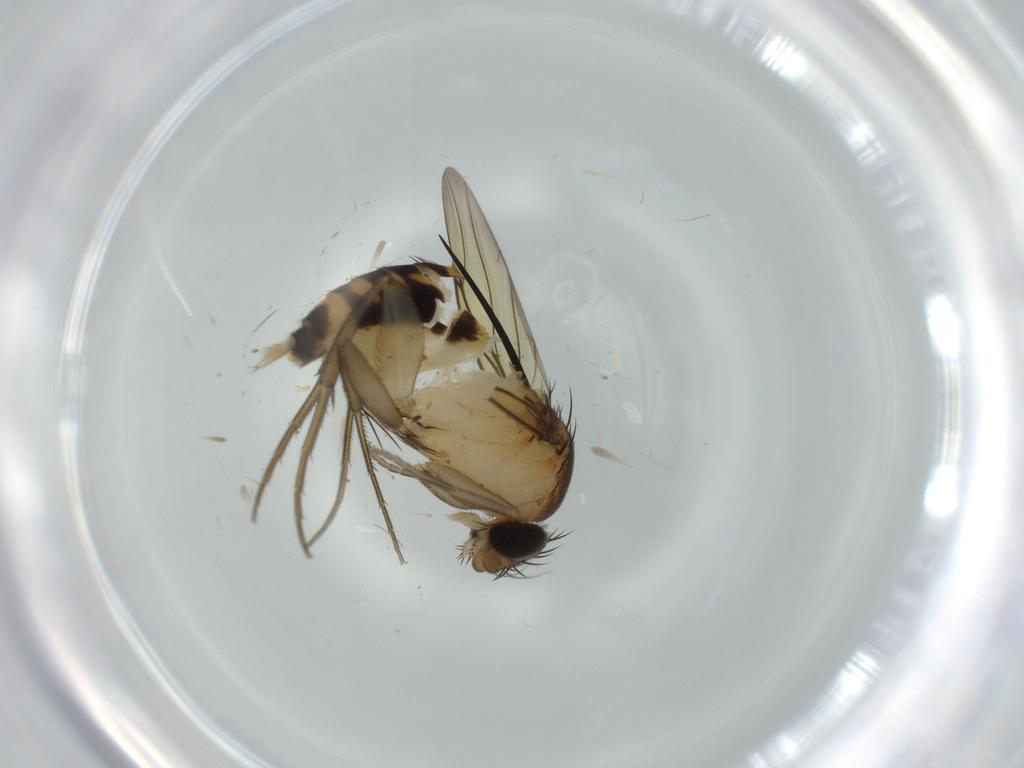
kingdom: Animalia
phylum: Arthropoda
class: Insecta
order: Diptera
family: Phoridae
